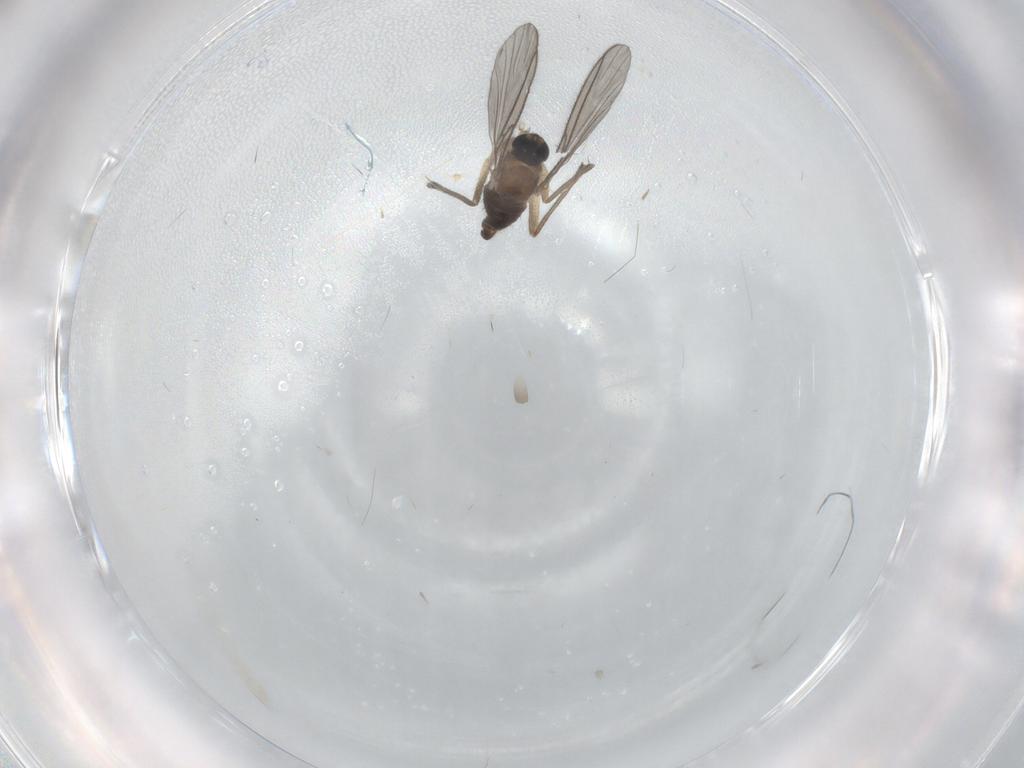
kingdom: Animalia
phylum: Arthropoda
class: Insecta
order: Diptera
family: Sciaridae
